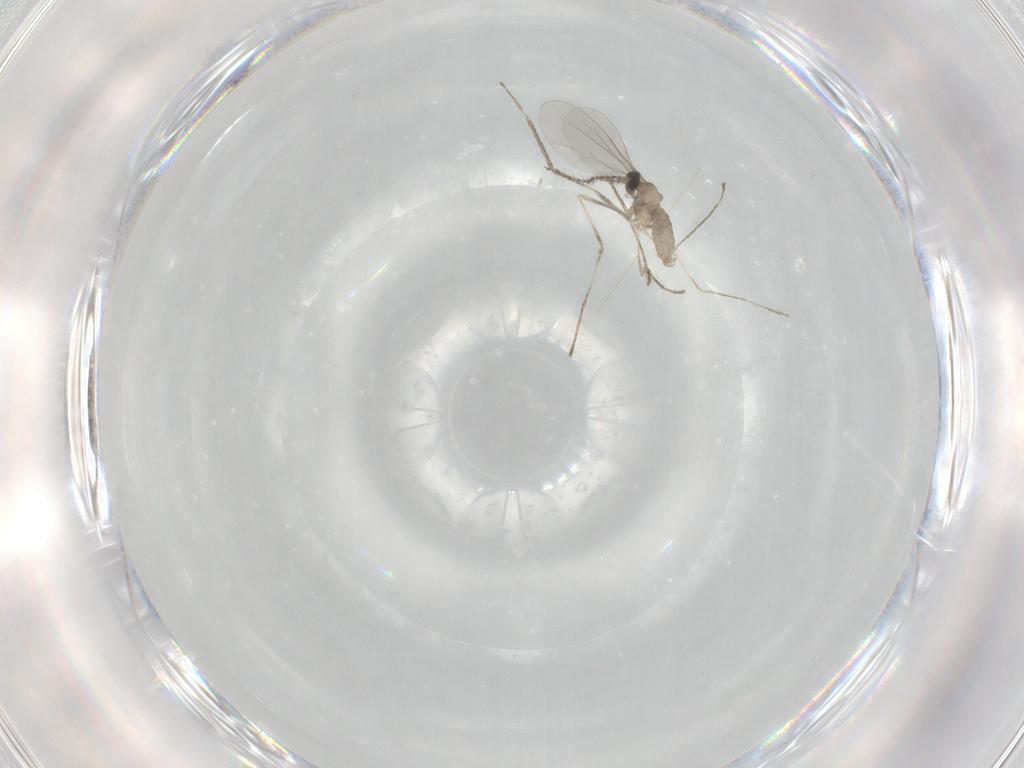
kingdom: Animalia
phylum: Arthropoda
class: Insecta
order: Diptera
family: Cecidomyiidae
